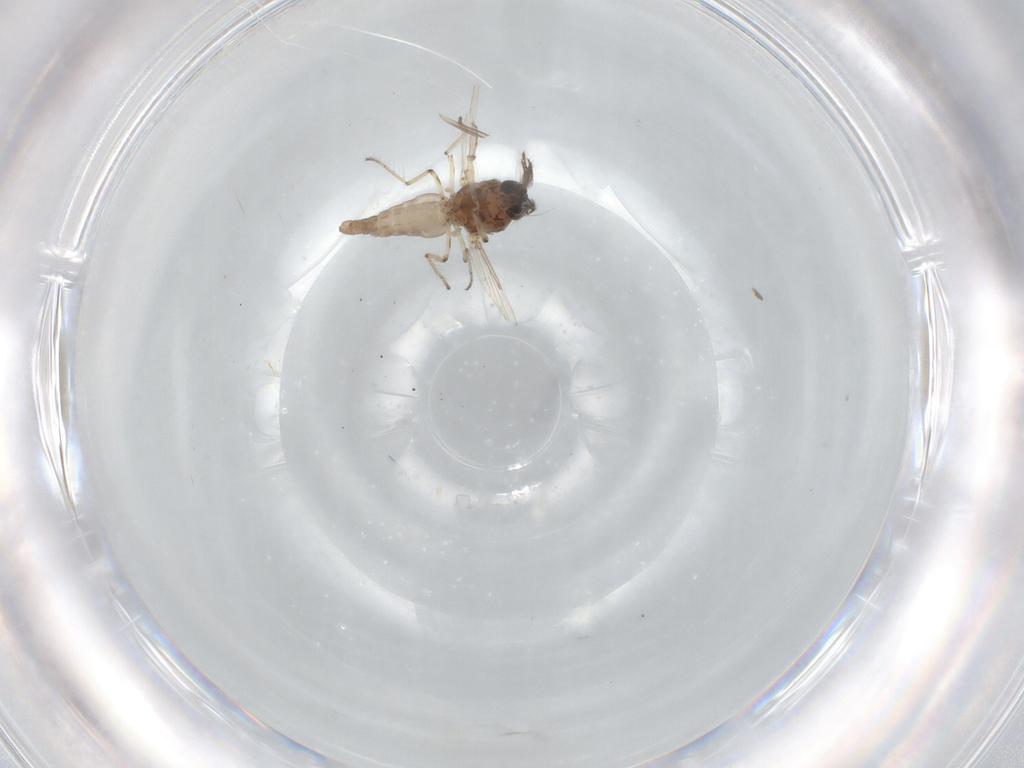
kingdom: Animalia
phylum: Arthropoda
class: Insecta
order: Diptera
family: Ceratopogonidae
